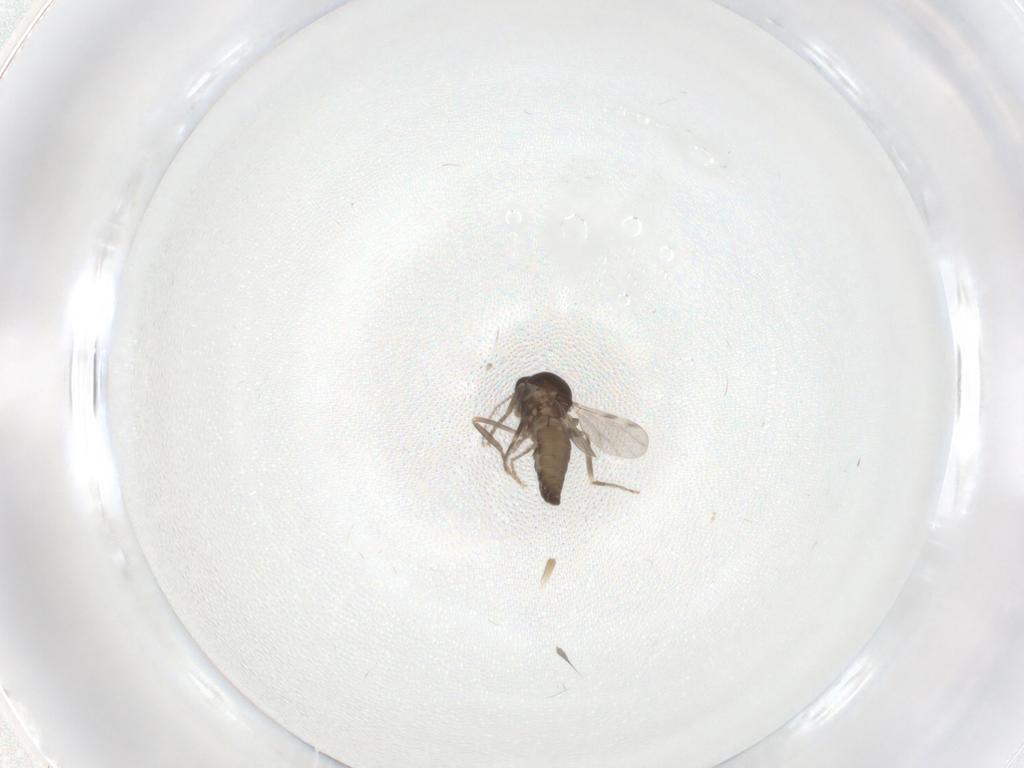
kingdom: Animalia
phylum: Arthropoda
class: Insecta
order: Diptera
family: Ceratopogonidae
